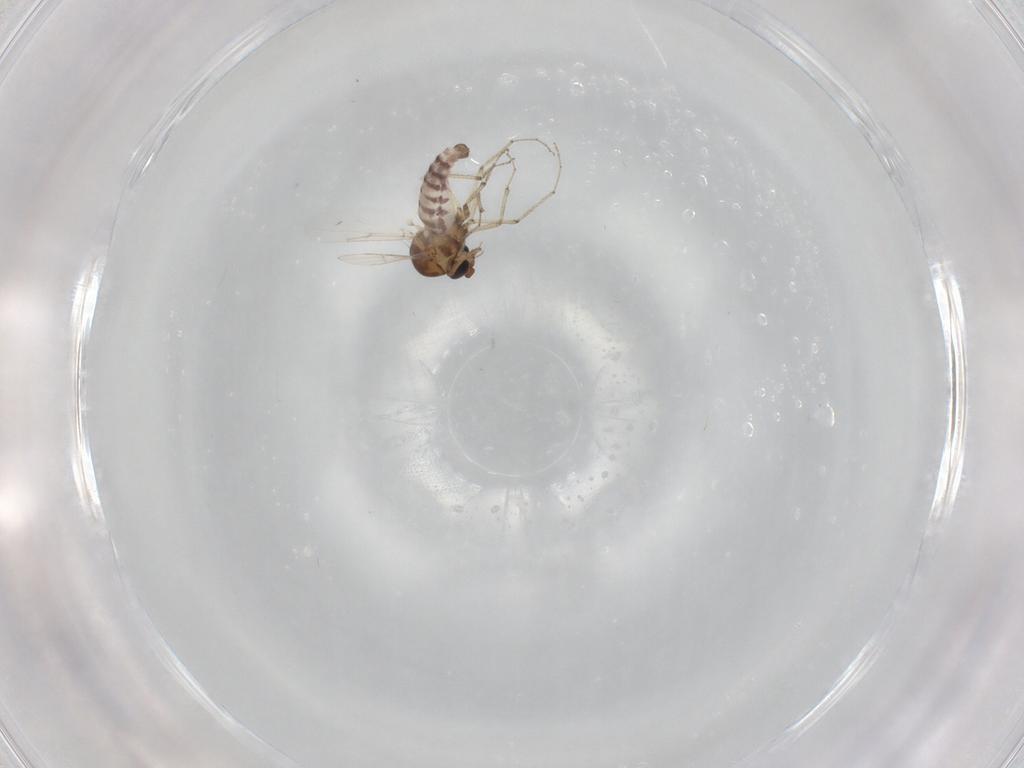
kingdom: Animalia
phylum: Arthropoda
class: Insecta
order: Diptera
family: Ceratopogonidae
